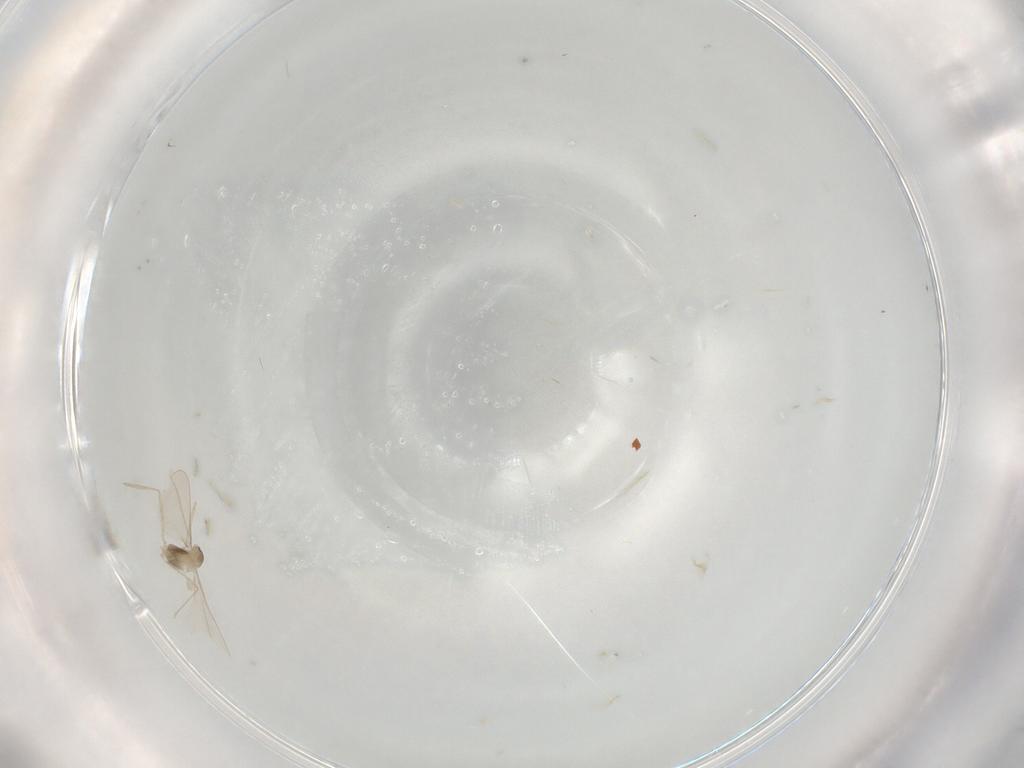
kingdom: Animalia
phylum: Arthropoda
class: Insecta
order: Diptera
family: Cecidomyiidae
